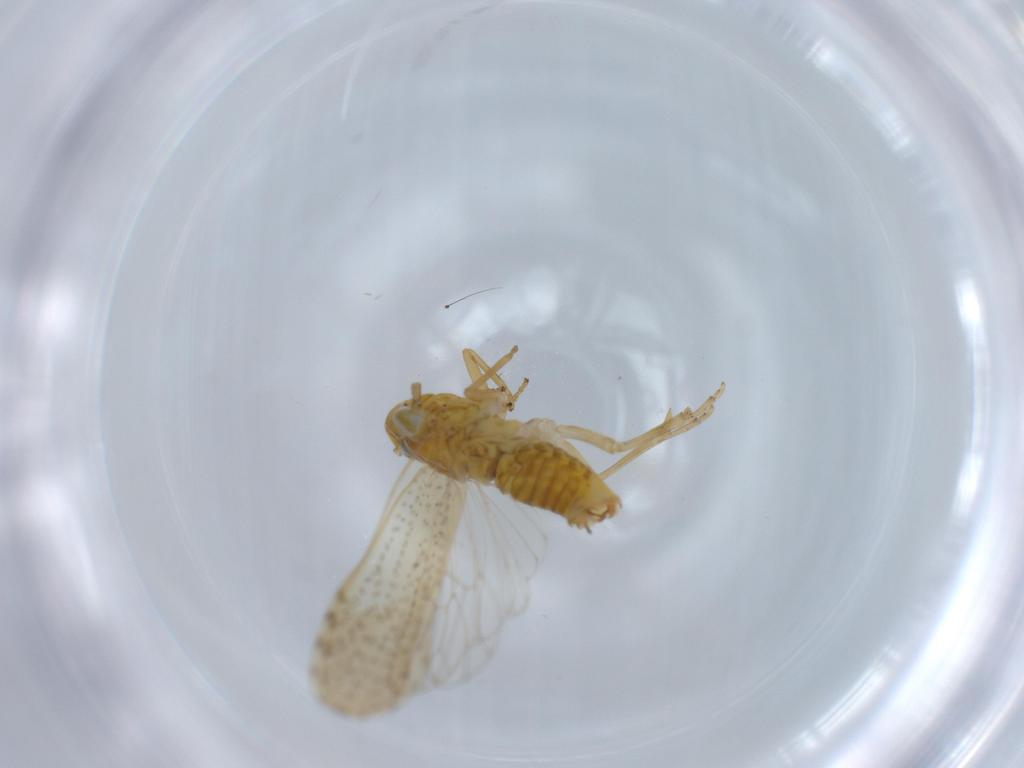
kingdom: Animalia
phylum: Arthropoda
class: Insecta
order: Hemiptera
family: Delphacidae
